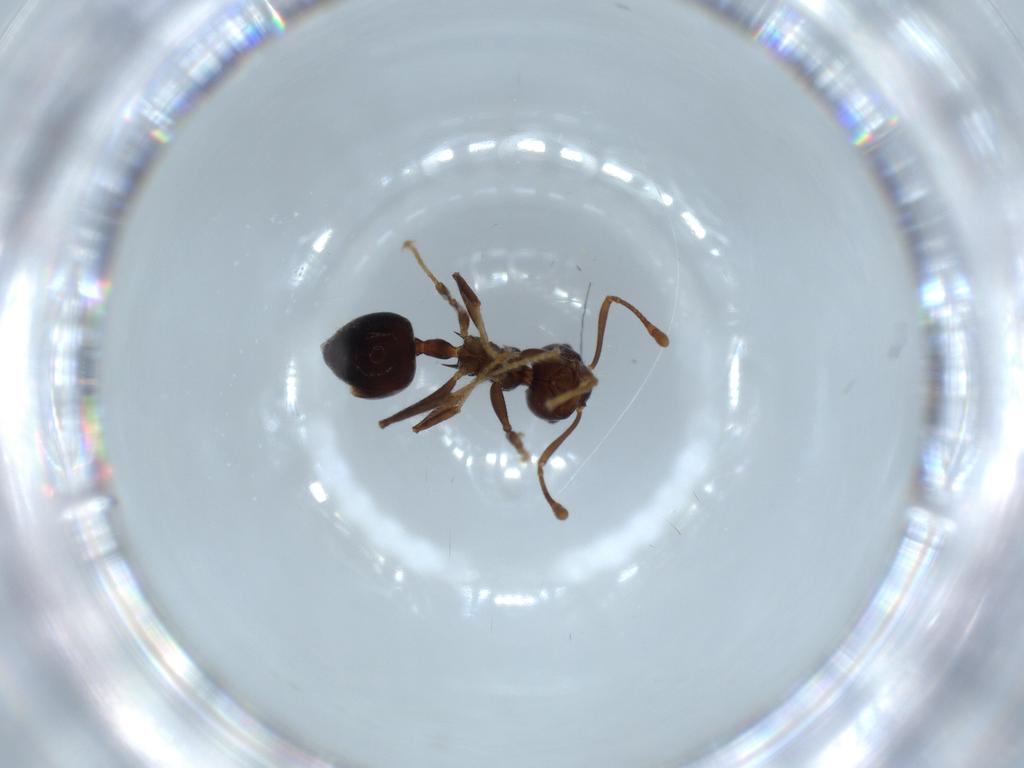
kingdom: Animalia
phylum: Arthropoda
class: Insecta
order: Hymenoptera
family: Formicidae
